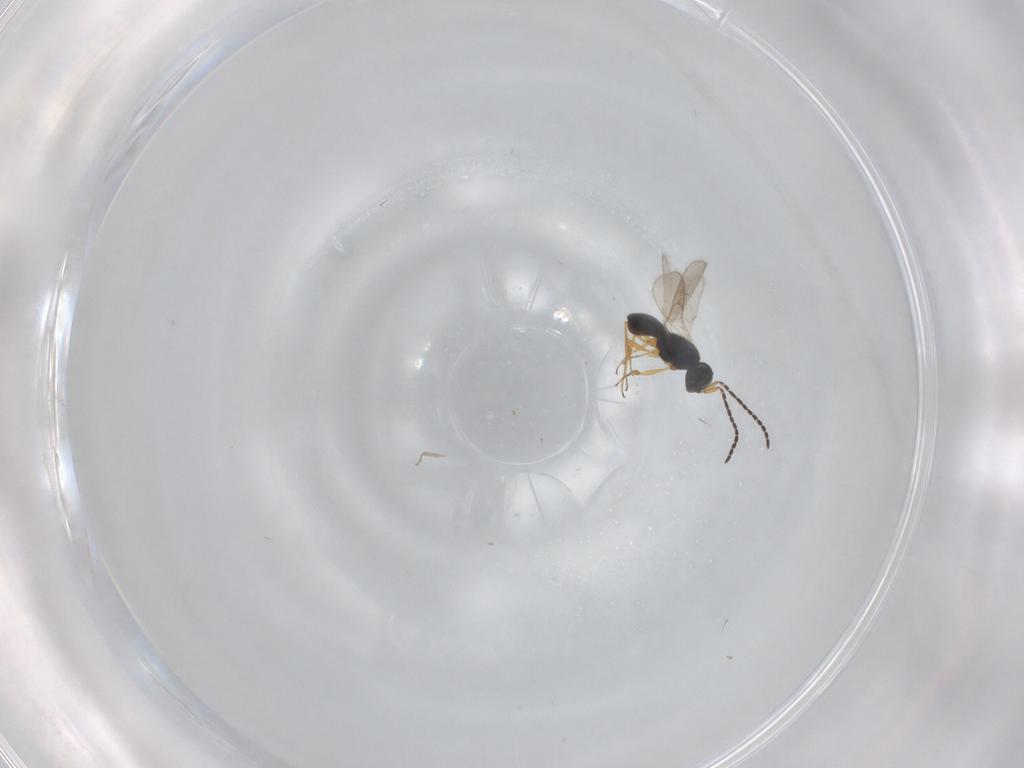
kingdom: Animalia
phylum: Arthropoda
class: Insecta
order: Hymenoptera
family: Scelionidae
